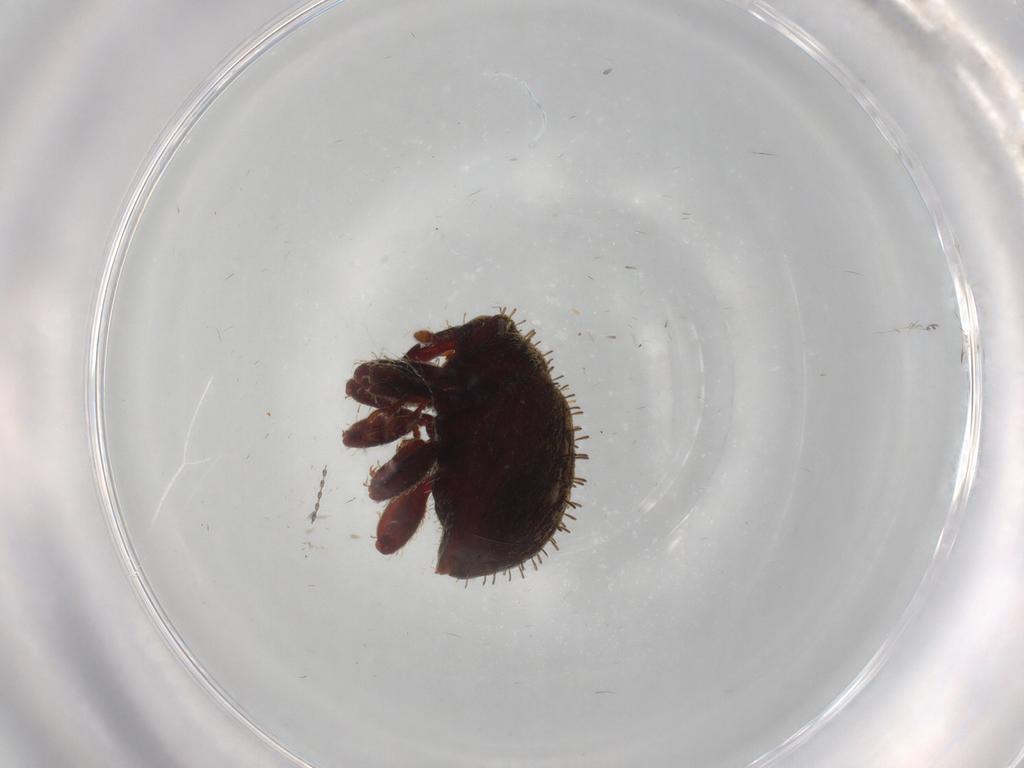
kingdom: Animalia
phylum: Arthropoda
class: Insecta
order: Coleoptera
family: Curculionidae
